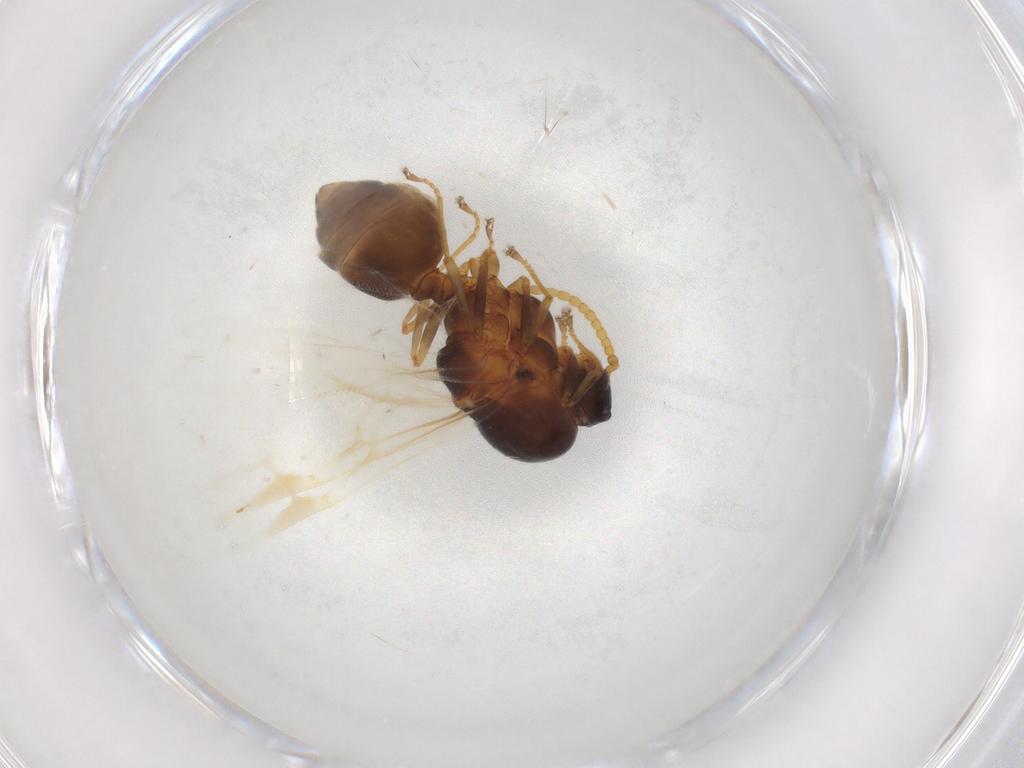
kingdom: Animalia
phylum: Arthropoda
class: Insecta
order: Hymenoptera
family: Formicidae
